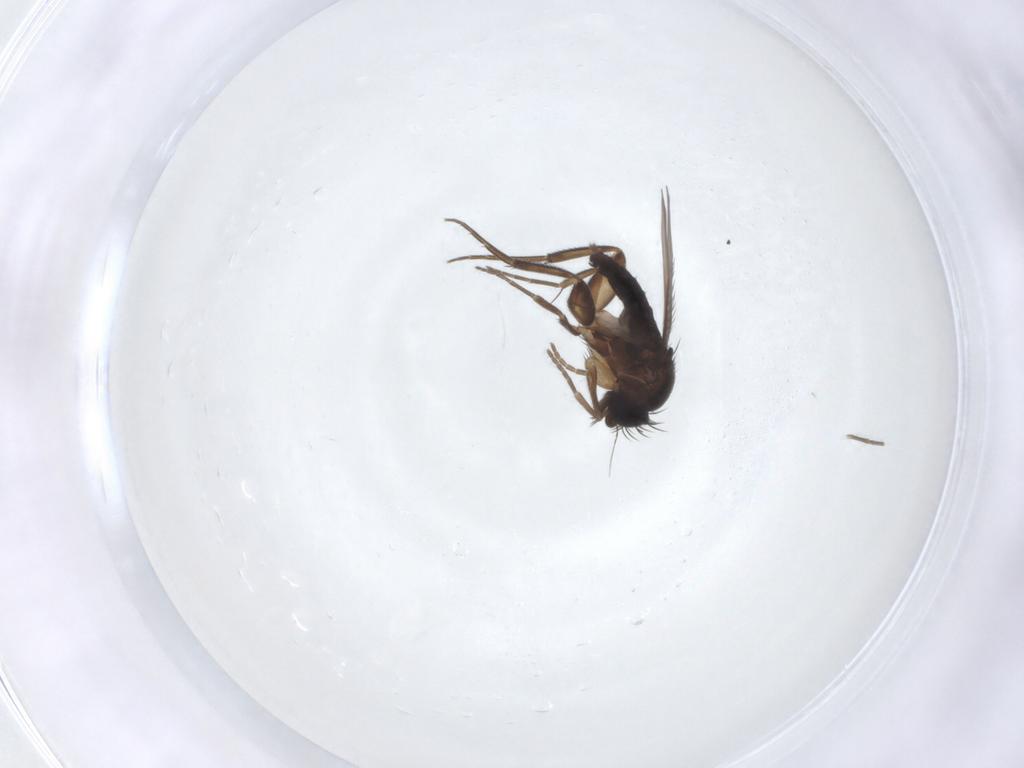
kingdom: Animalia
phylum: Arthropoda
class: Insecta
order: Diptera
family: Phoridae
